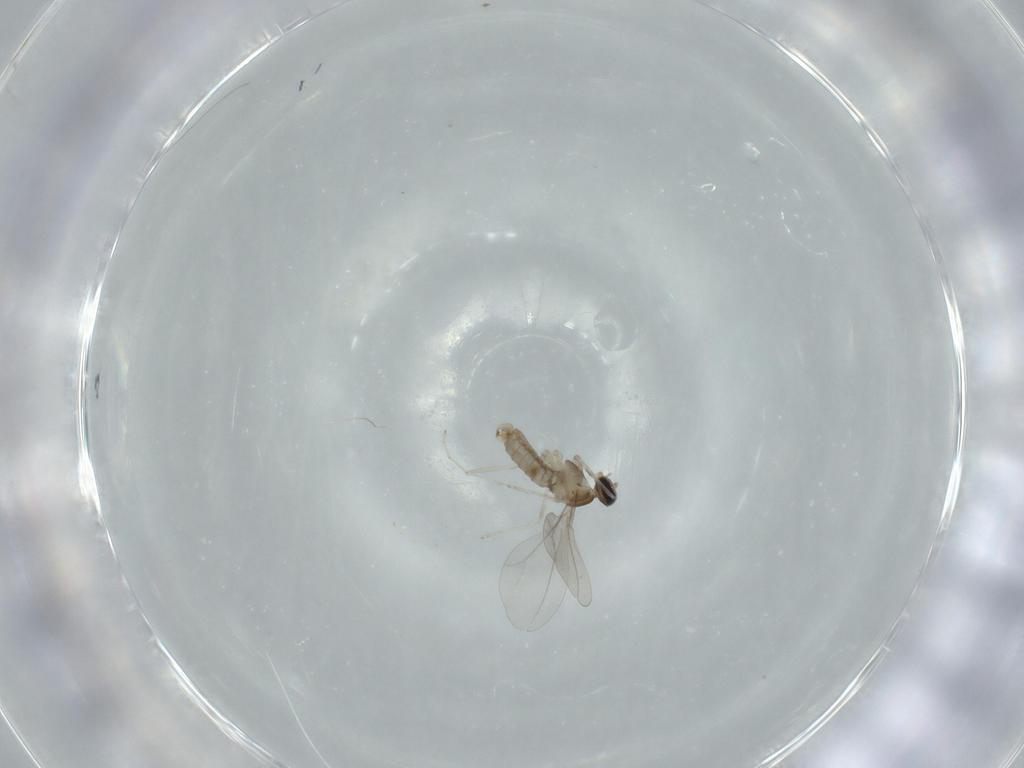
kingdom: Animalia
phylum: Arthropoda
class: Insecta
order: Diptera
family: Cecidomyiidae
